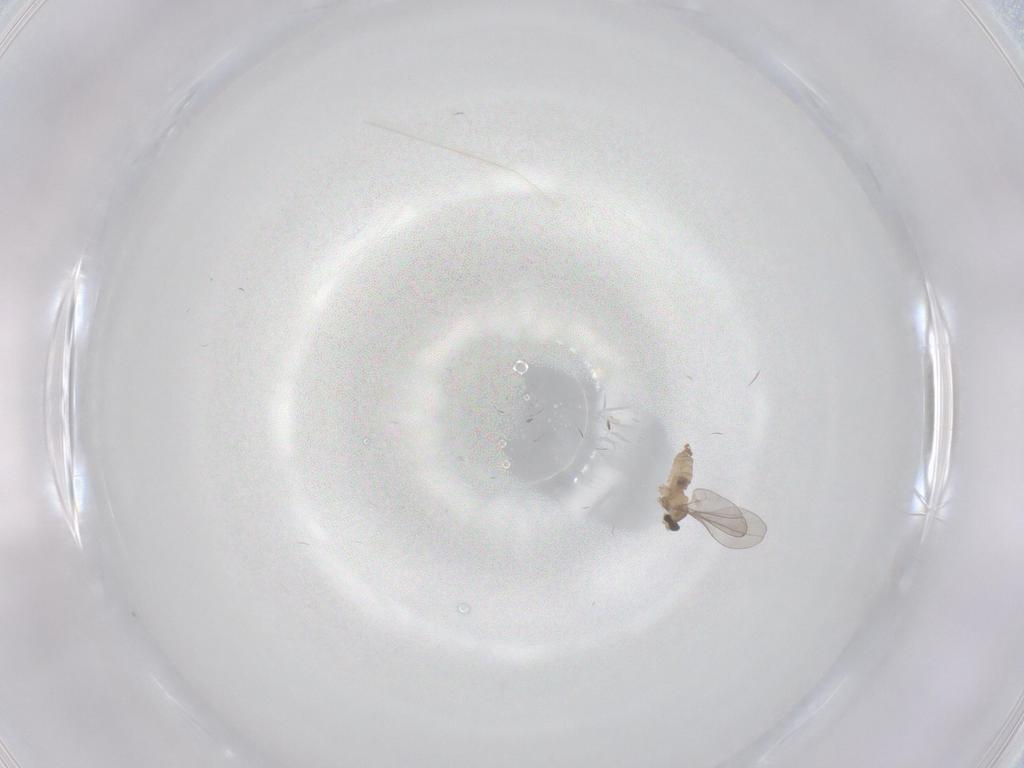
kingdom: Animalia
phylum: Arthropoda
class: Insecta
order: Diptera
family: Cecidomyiidae
